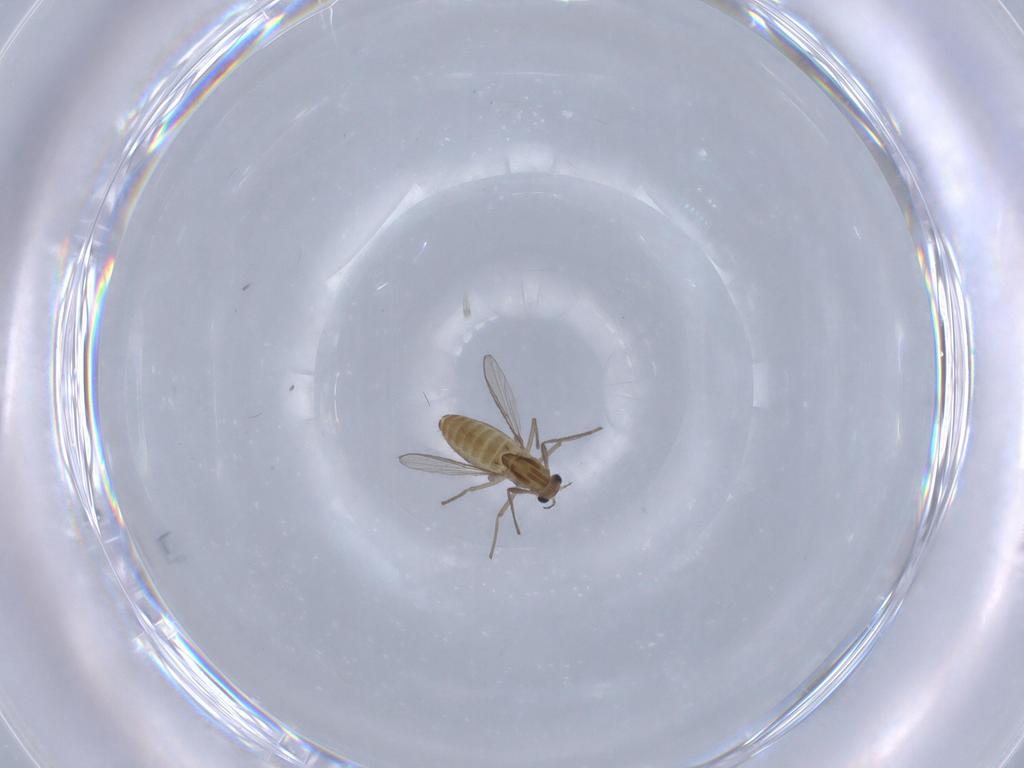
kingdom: Animalia
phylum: Arthropoda
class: Insecta
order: Diptera
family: Chironomidae
